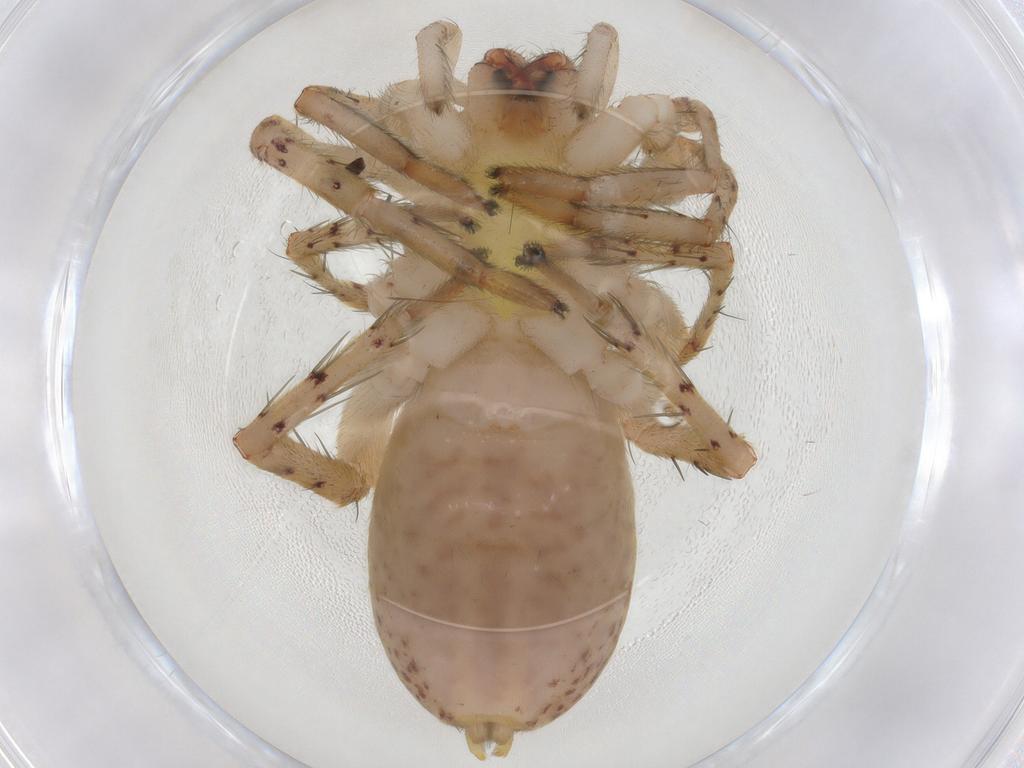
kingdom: Animalia
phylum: Arthropoda
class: Arachnida
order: Araneae
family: Anyphaenidae
